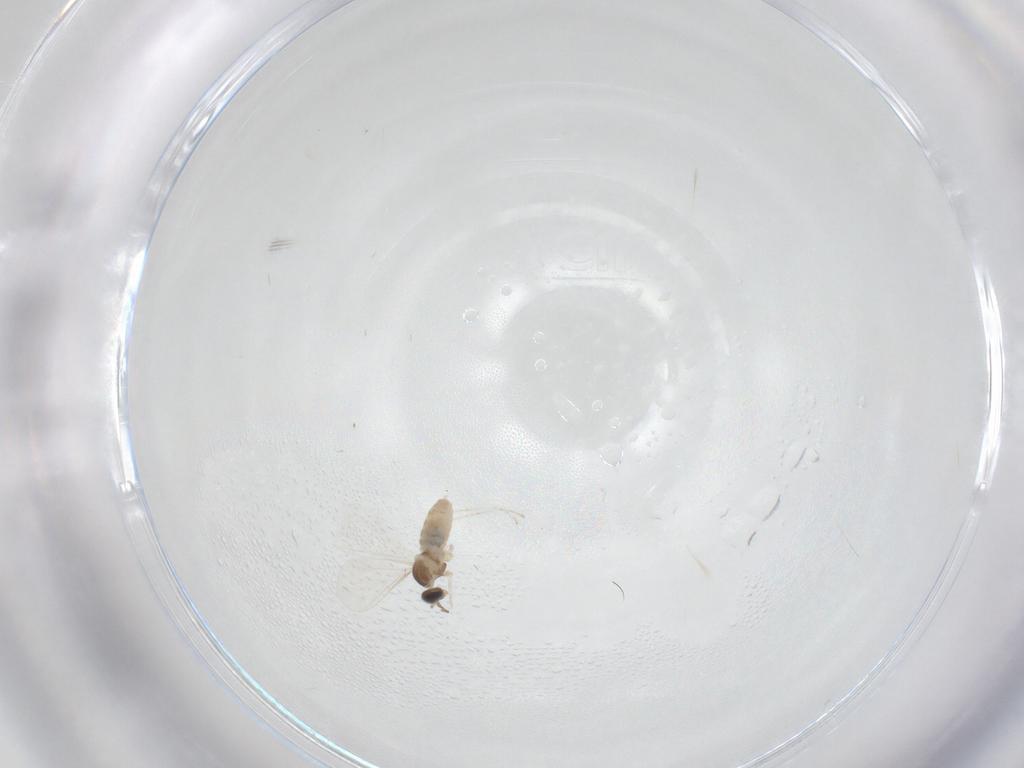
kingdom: Animalia
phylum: Arthropoda
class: Insecta
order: Diptera
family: Cecidomyiidae
